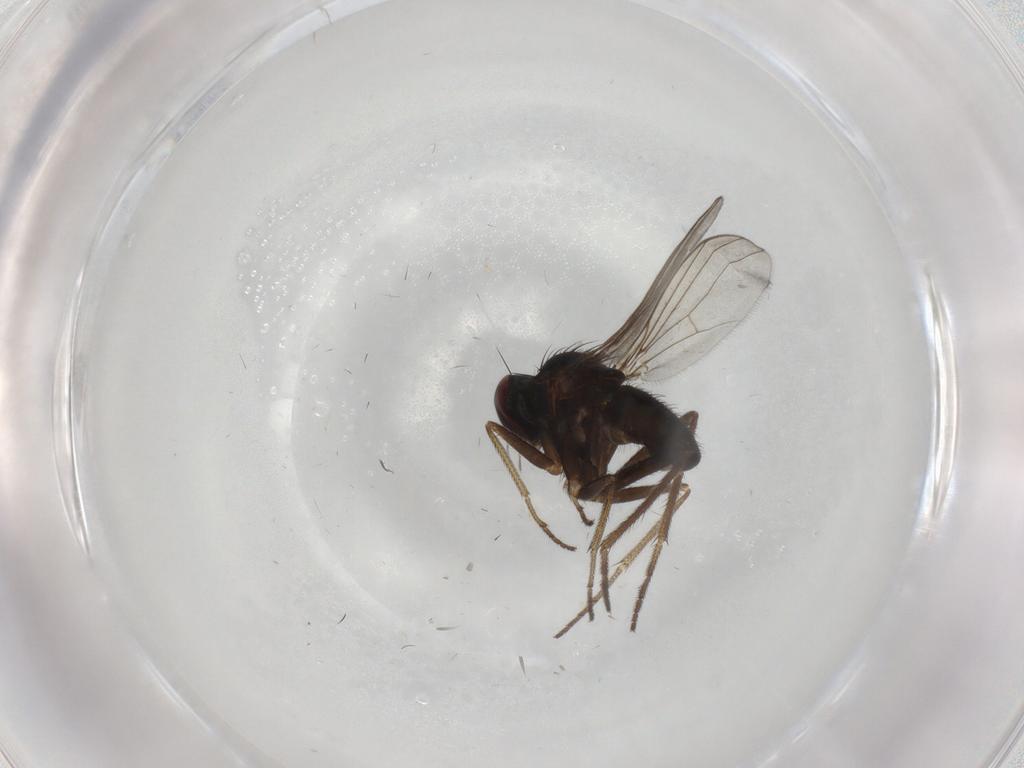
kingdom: Animalia
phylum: Arthropoda
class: Insecta
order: Diptera
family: Dolichopodidae
